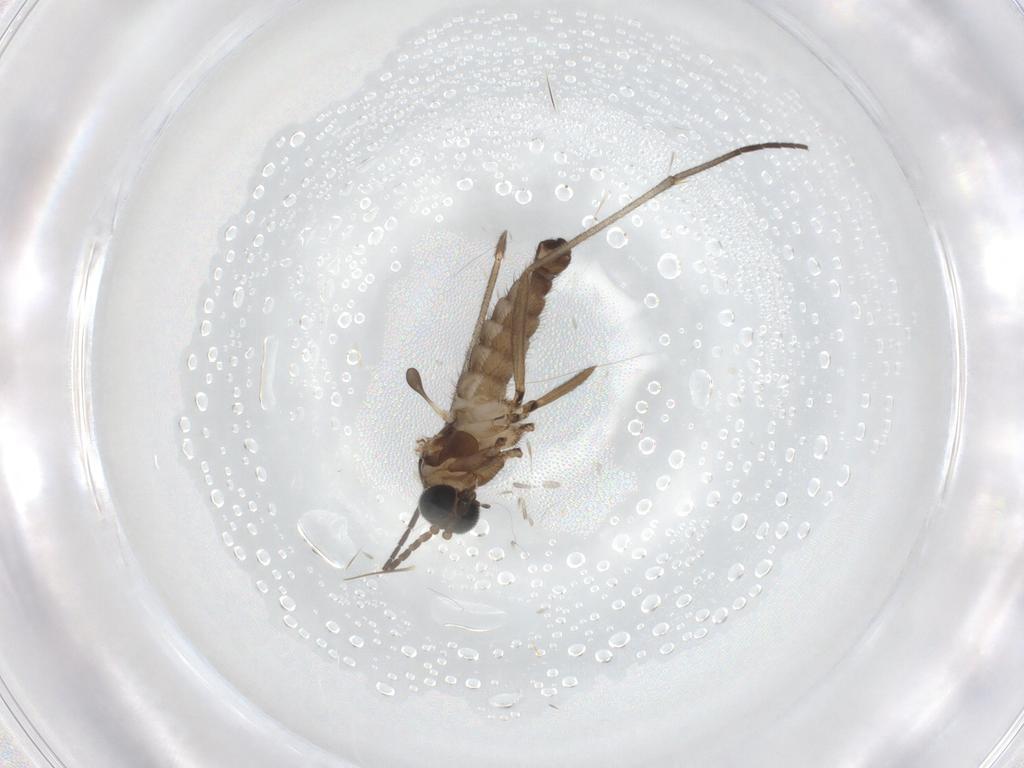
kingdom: Animalia
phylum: Arthropoda
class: Insecta
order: Diptera
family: Sciaridae
